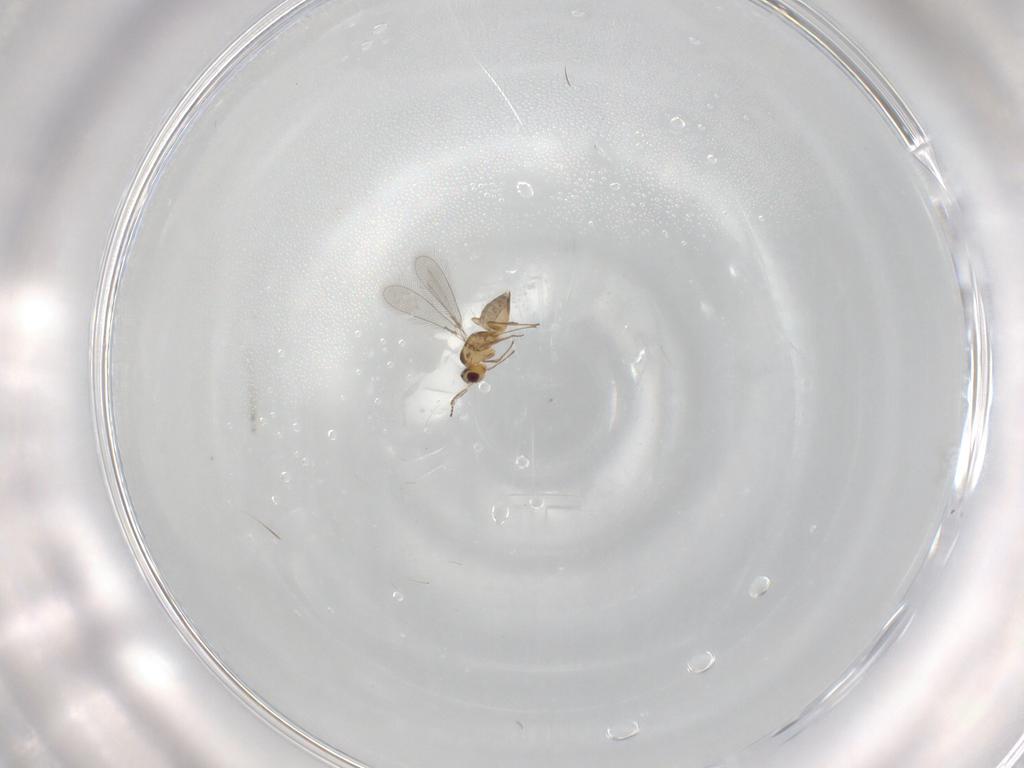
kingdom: Animalia
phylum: Arthropoda
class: Insecta
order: Hymenoptera
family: Mymaridae
